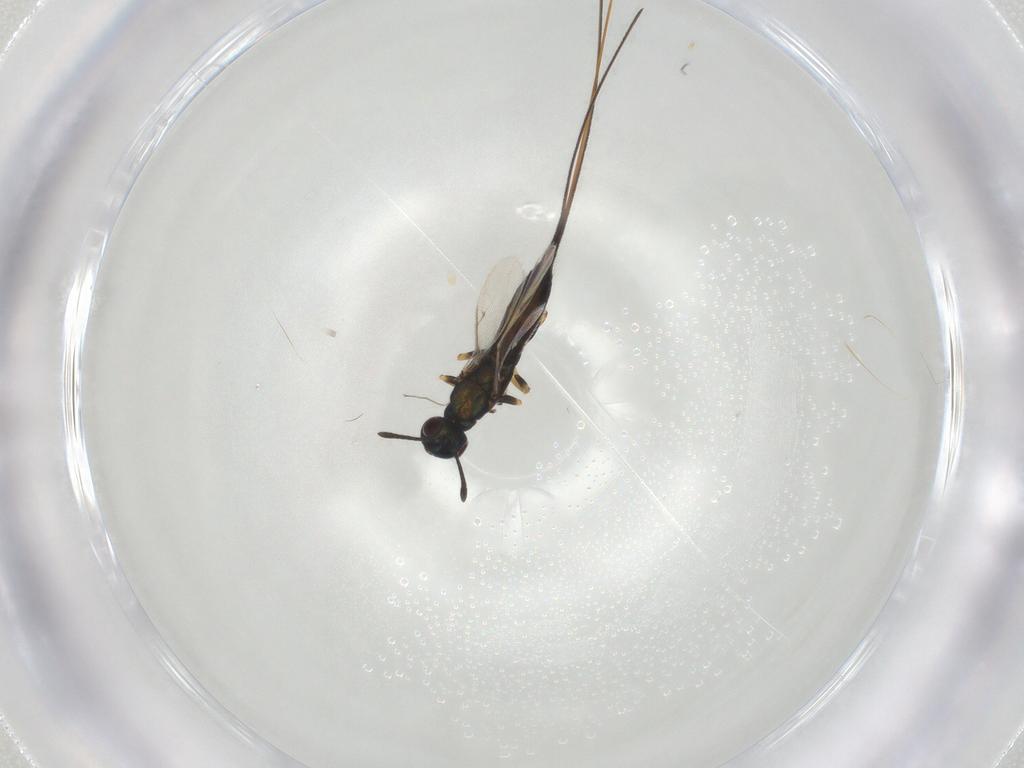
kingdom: Animalia
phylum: Arthropoda
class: Insecta
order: Hymenoptera
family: Torymidae
